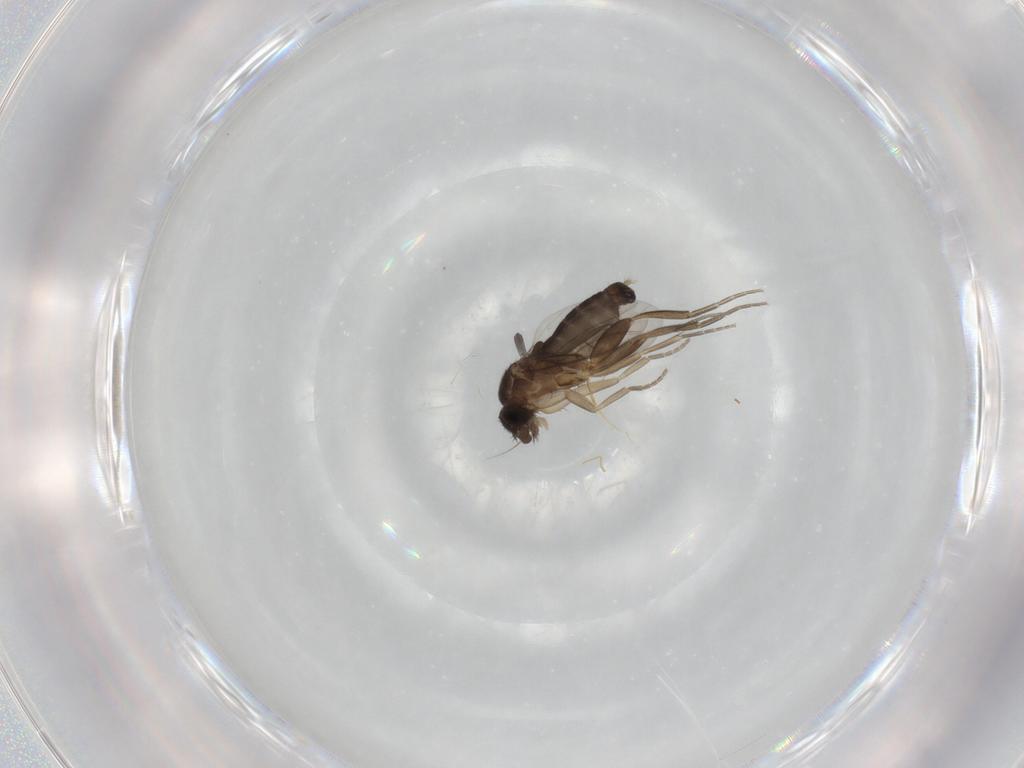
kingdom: Animalia
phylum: Arthropoda
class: Insecta
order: Diptera
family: Phoridae
